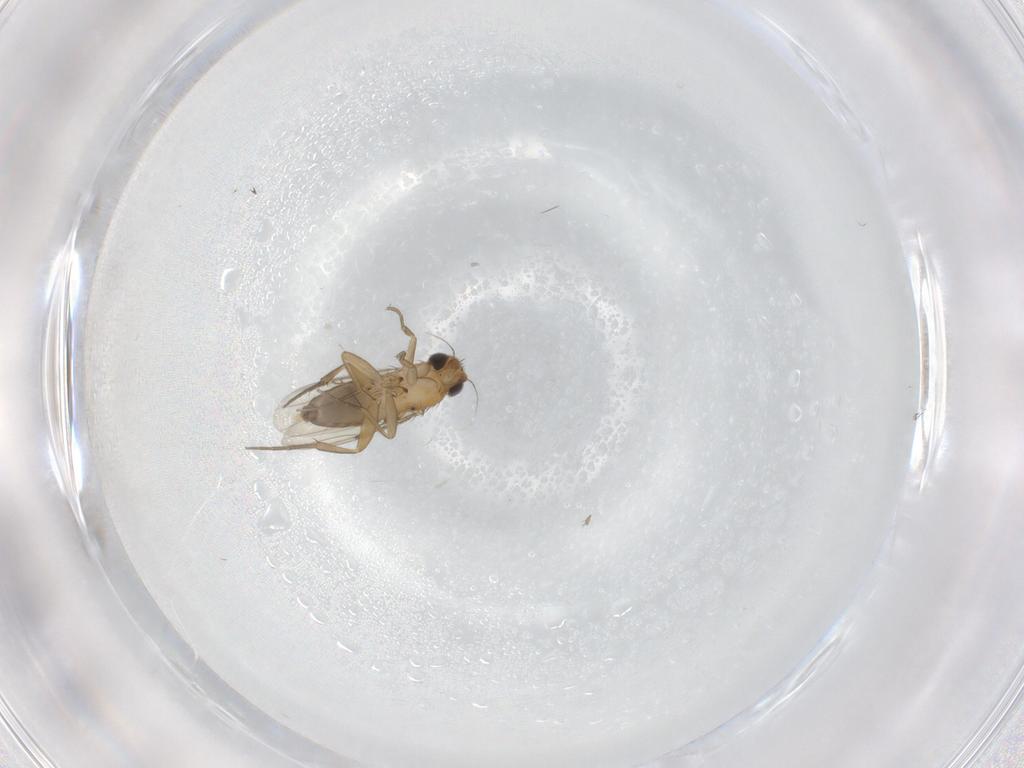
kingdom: Animalia
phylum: Arthropoda
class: Insecta
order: Diptera
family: Phoridae
